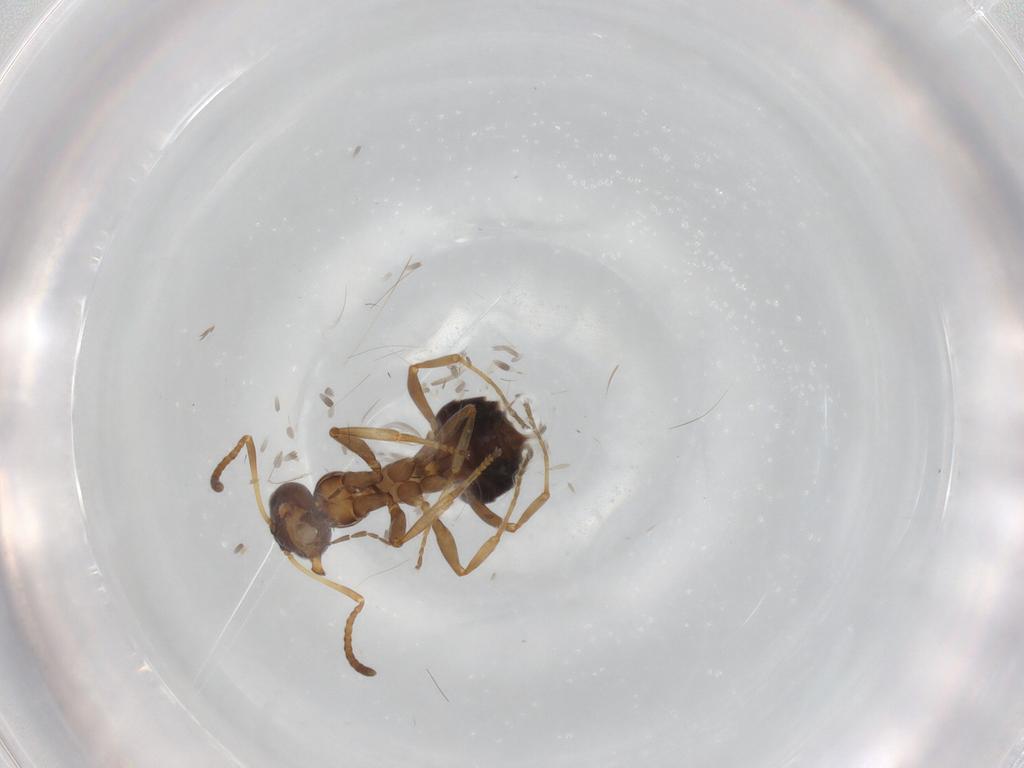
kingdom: Animalia
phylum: Arthropoda
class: Insecta
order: Hymenoptera
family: Formicidae
